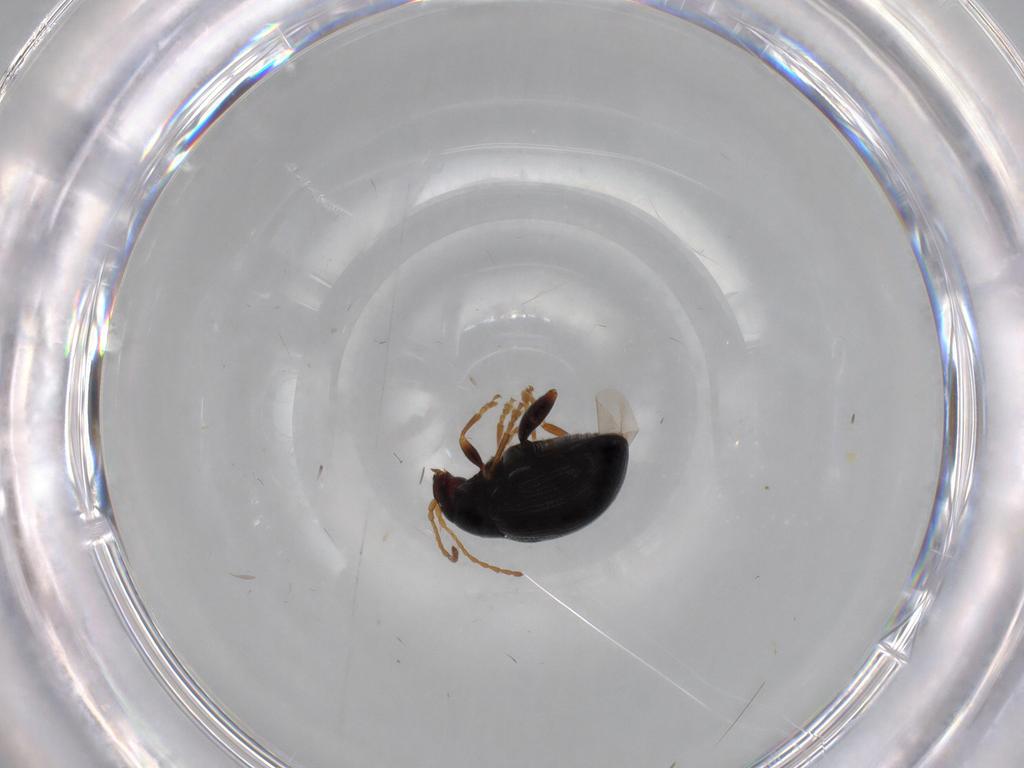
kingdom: Animalia
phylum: Arthropoda
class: Insecta
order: Coleoptera
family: Chrysomelidae
